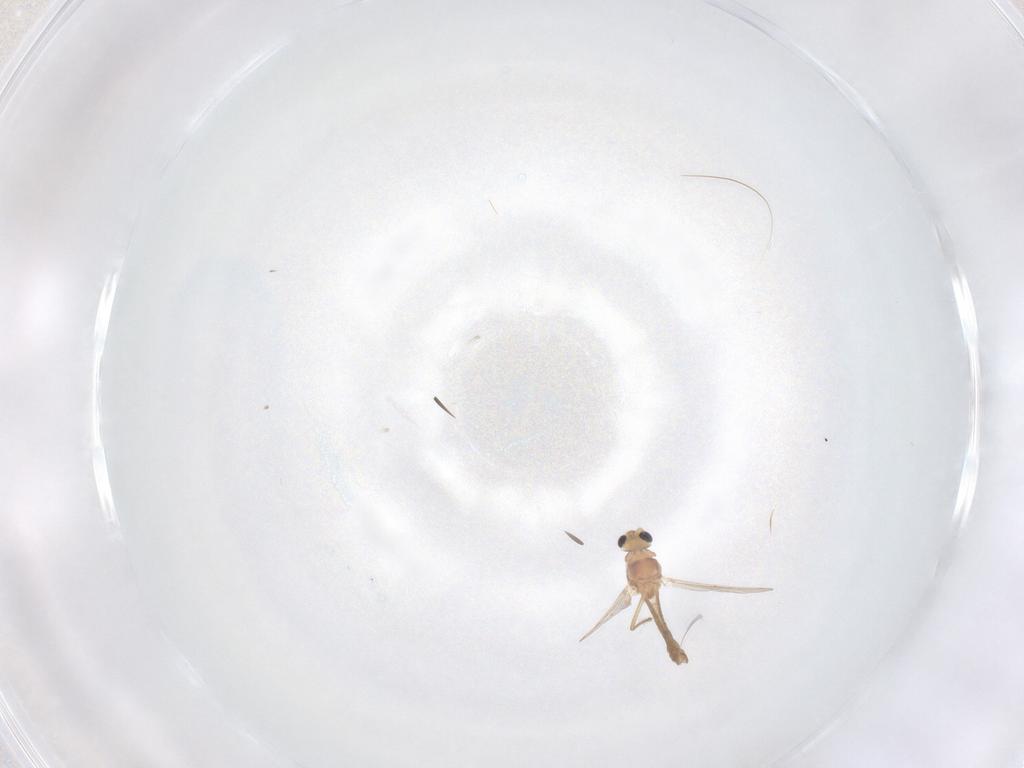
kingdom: Animalia
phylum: Arthropoda
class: Insecta
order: Diptera
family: Chironomidae
